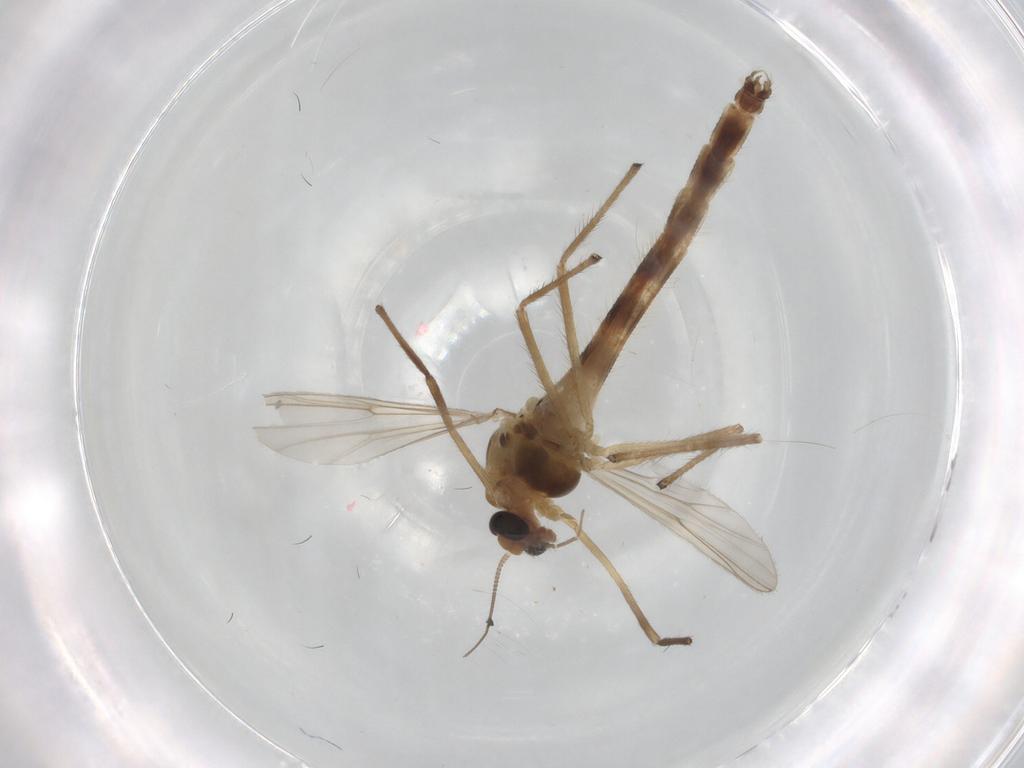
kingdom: Animalia
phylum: Arthropoda
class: Insecta
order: Diptera
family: Chironomidae
